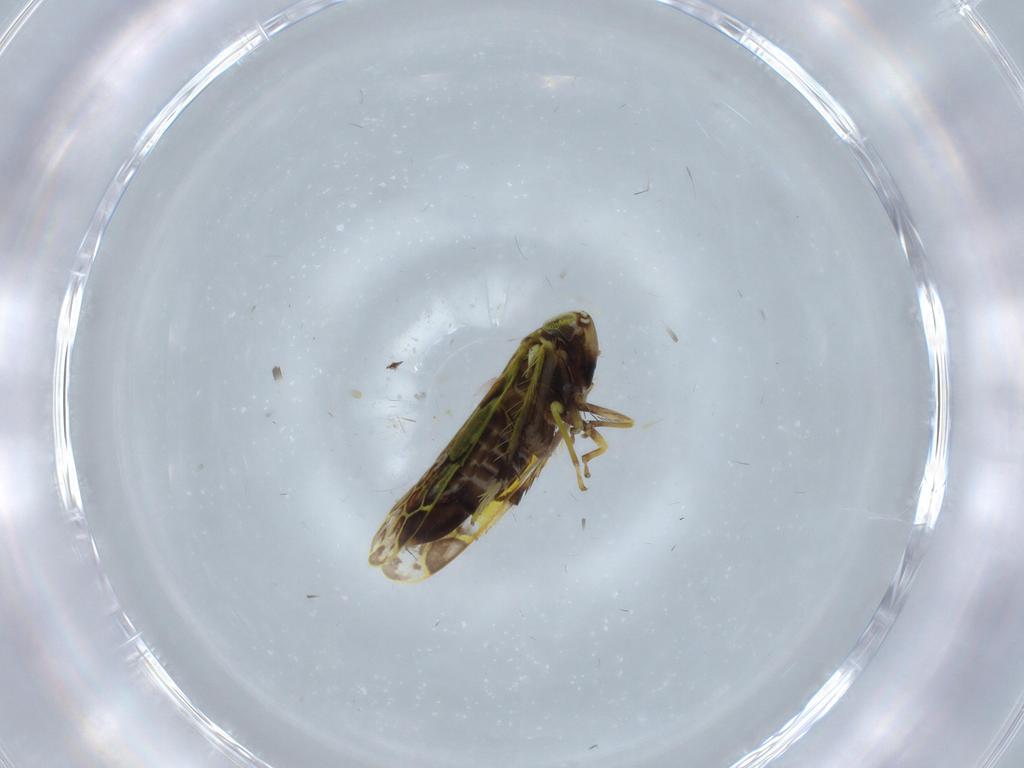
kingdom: Animalia
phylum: Arthropoda
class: Insecta
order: Hemiptera
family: Cicadellidae
